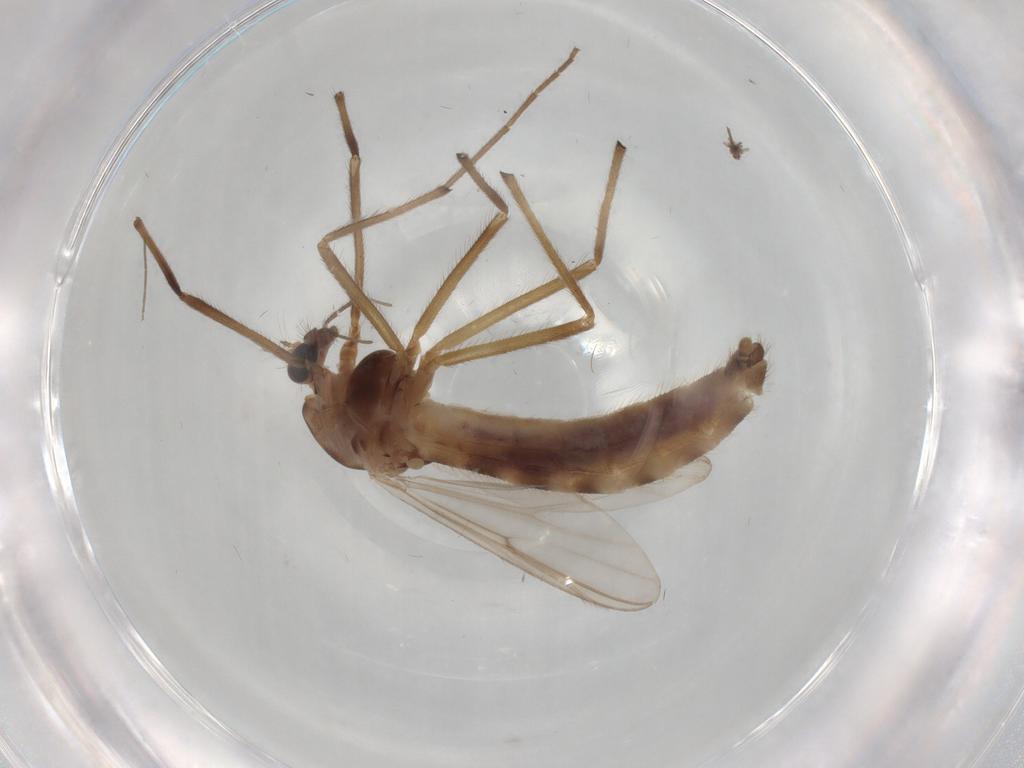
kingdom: Animalia
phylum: Arthropoda
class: Insecta
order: Diptera
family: Chironomidae
